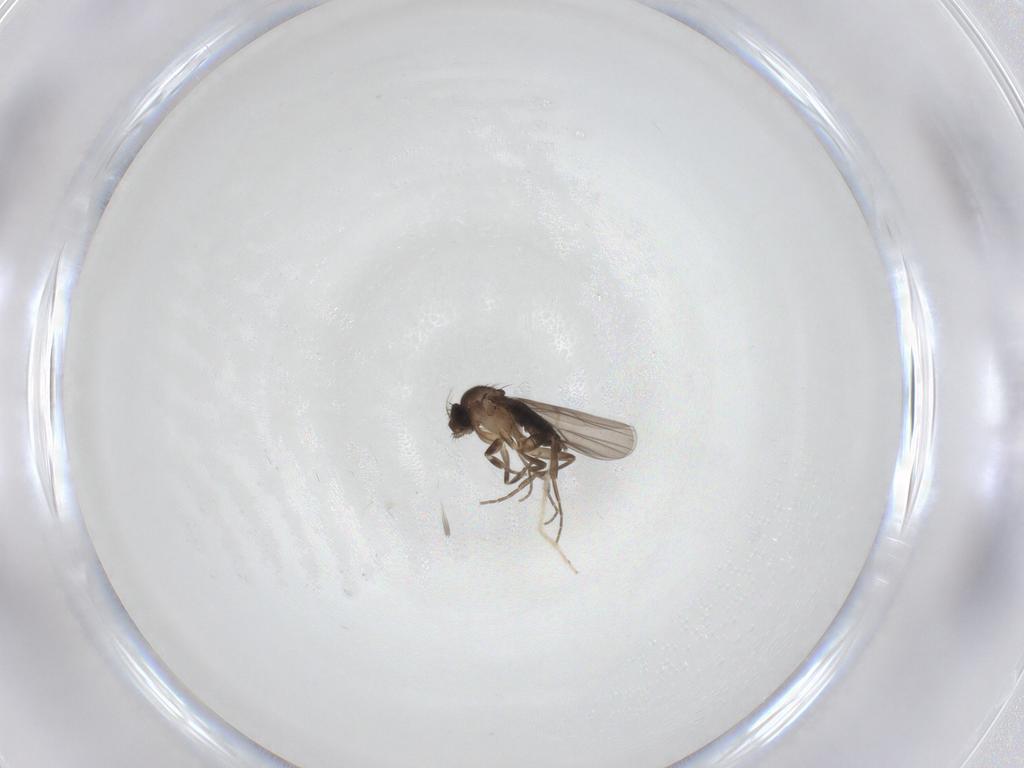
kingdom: Animalia
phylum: Arthropoda
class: Insecta
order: Diptera
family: Chironomidae
